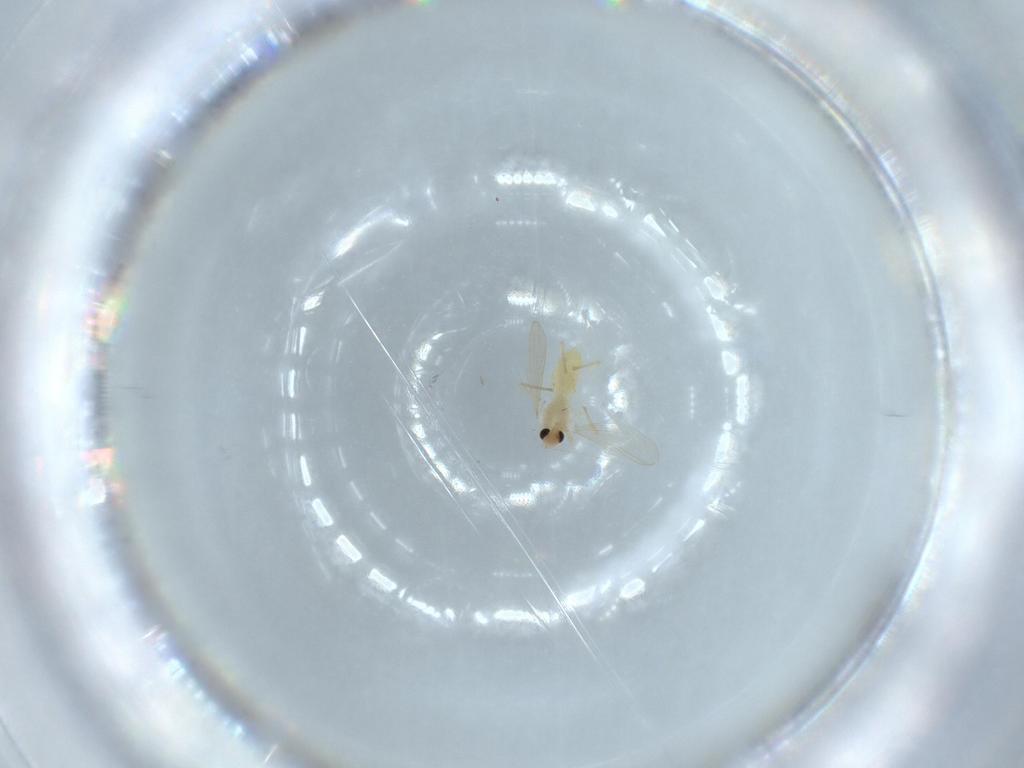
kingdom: Animalia
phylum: Arthropoda
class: Insecta
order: Diptera
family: Chironomidae
